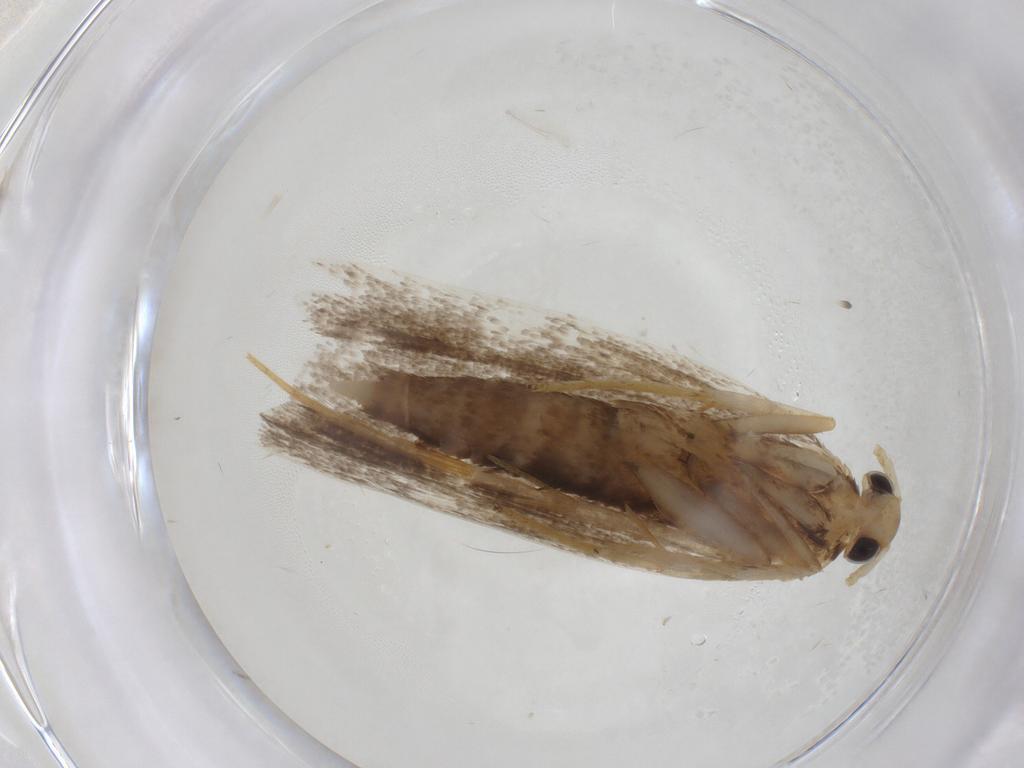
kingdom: Animalia
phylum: Arthropoda
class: Insecta
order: Lepidoptera
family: Lecithoceridae
